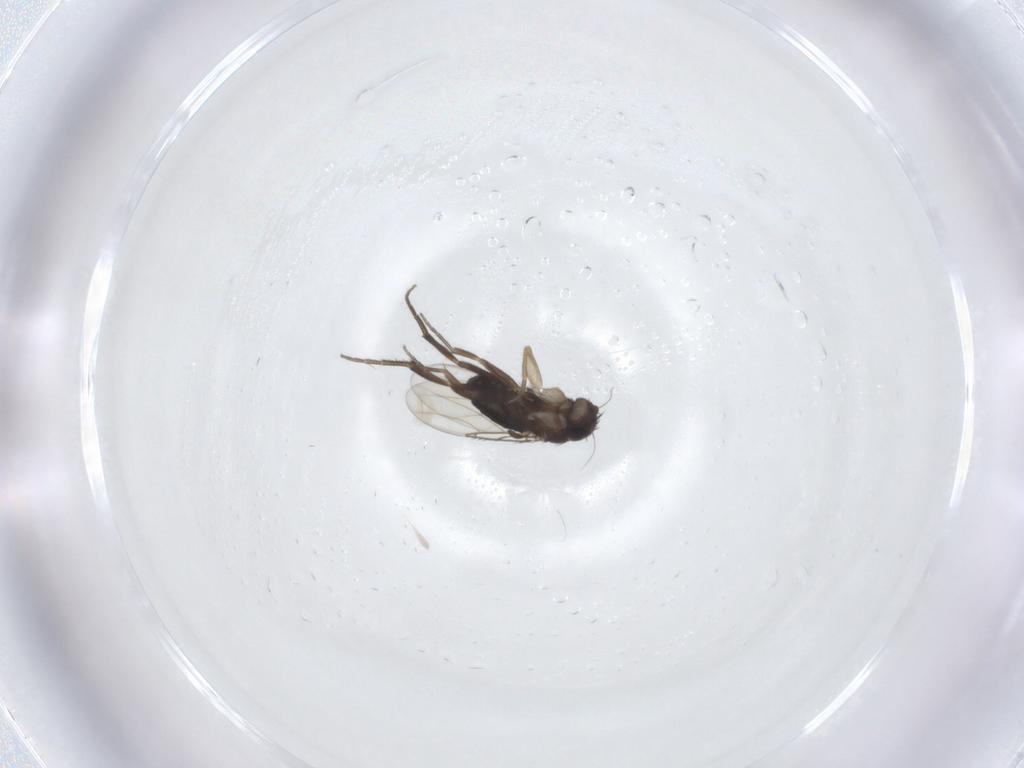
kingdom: Animalia
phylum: Arthropoda
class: Insecta
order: Diptera
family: Phoridae
